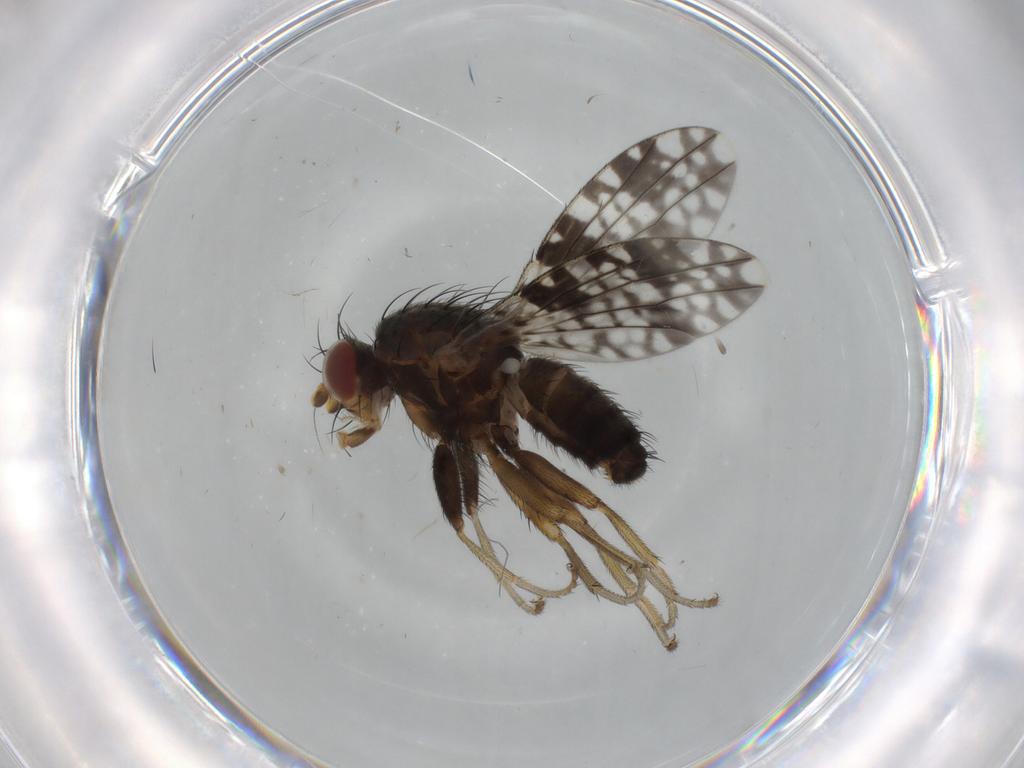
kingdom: Animalia
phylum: Arthropoda
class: Insecta
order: Diptera
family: Tephritidae
